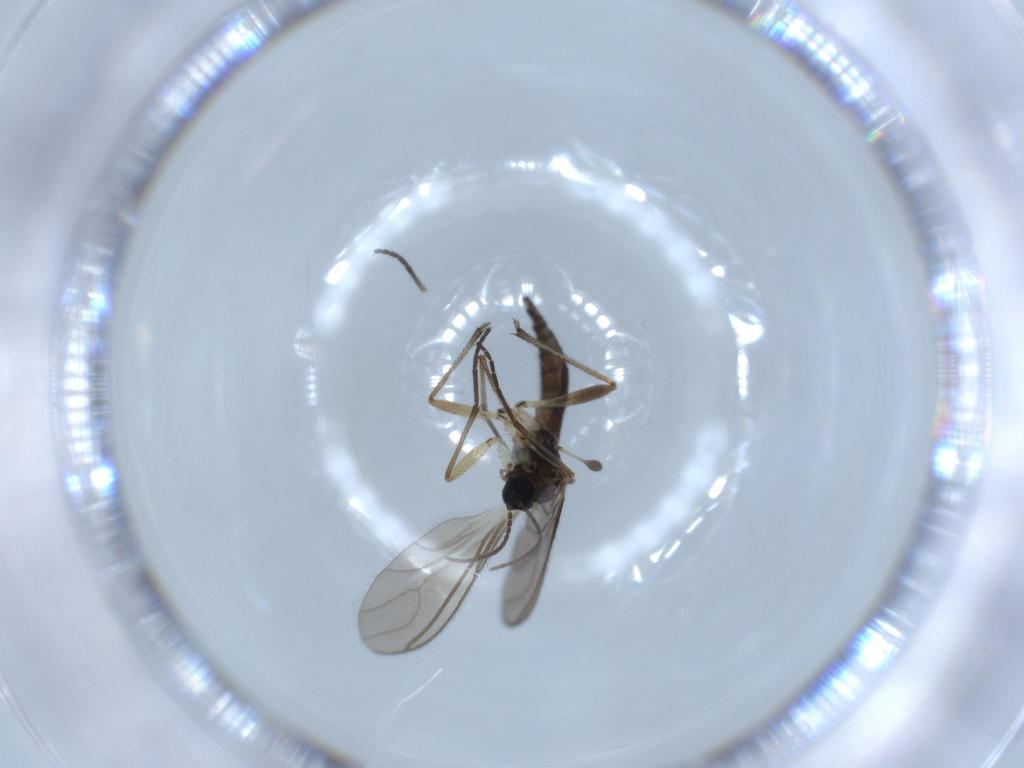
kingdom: Animalia
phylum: Arthropoda
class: Insecta
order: Diptera
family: Sciaridae
